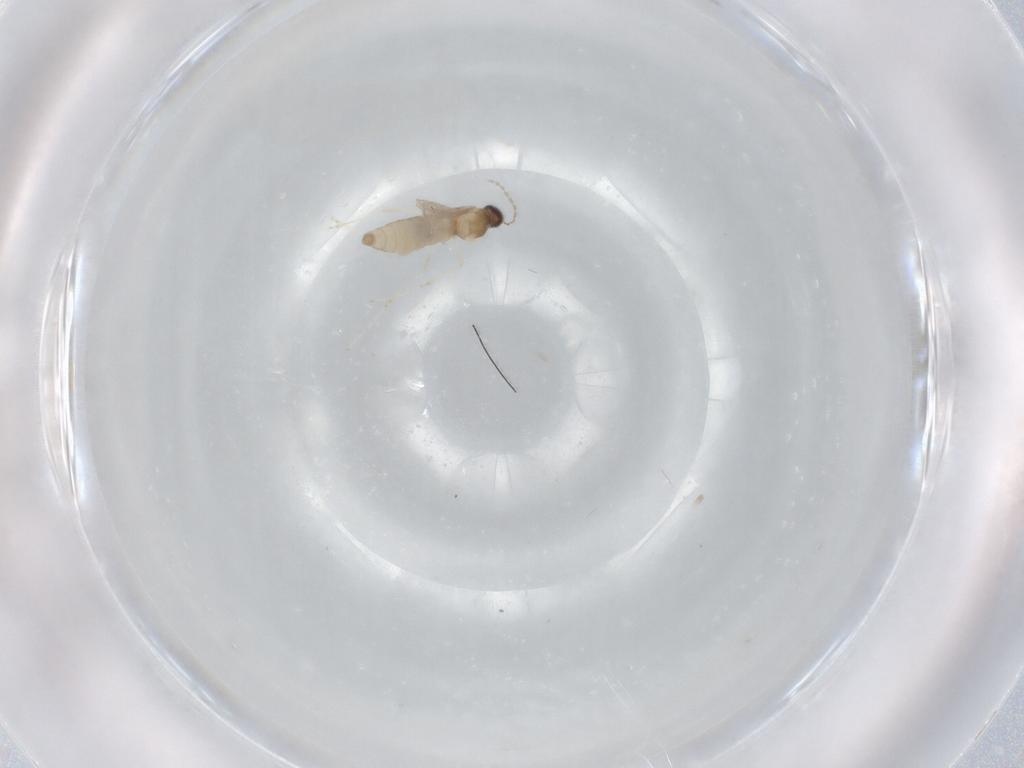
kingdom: Animalia
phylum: Arthropoda
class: Insecta
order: Diptera
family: Cecidomyiidae
